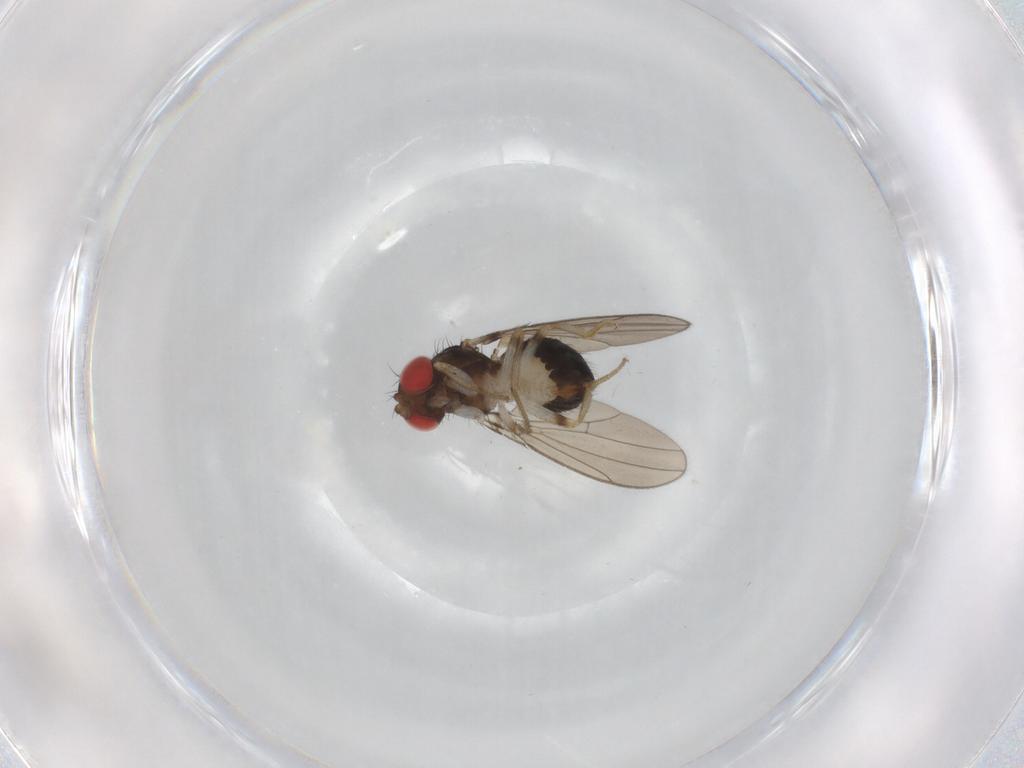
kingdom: Animalia
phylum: Arthropoda
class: Insecta
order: Diptera
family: Drosophilidae
